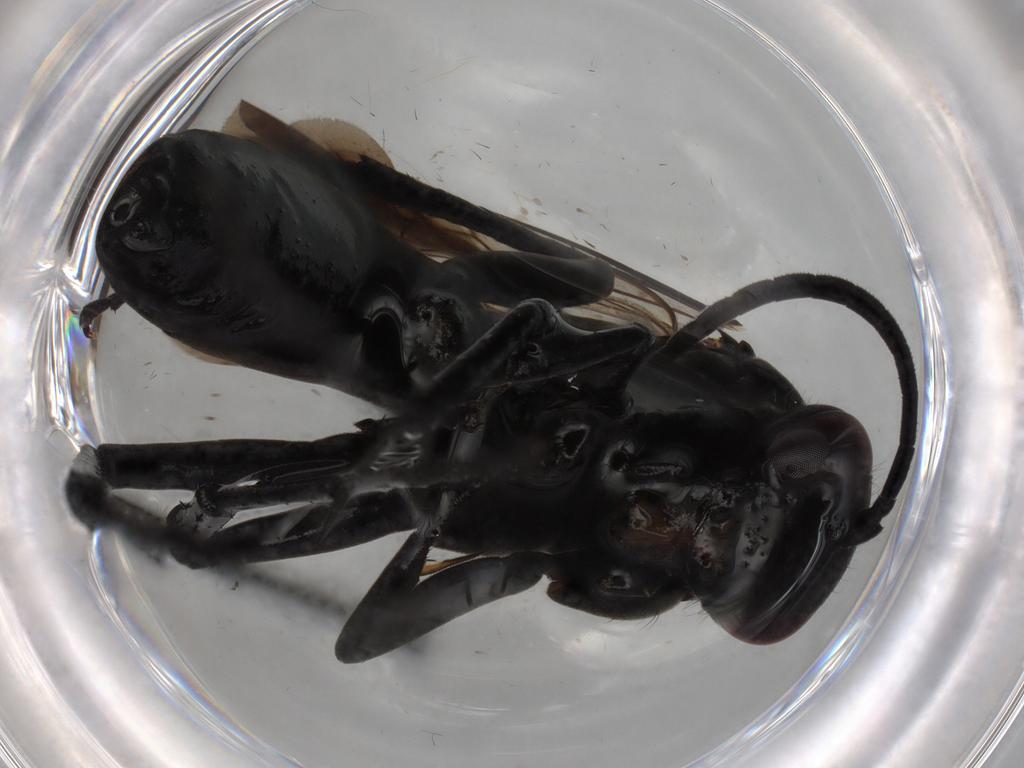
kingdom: Animalia
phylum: Arthropoda
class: Insecta
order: Hymenoptera
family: Pompilidae
